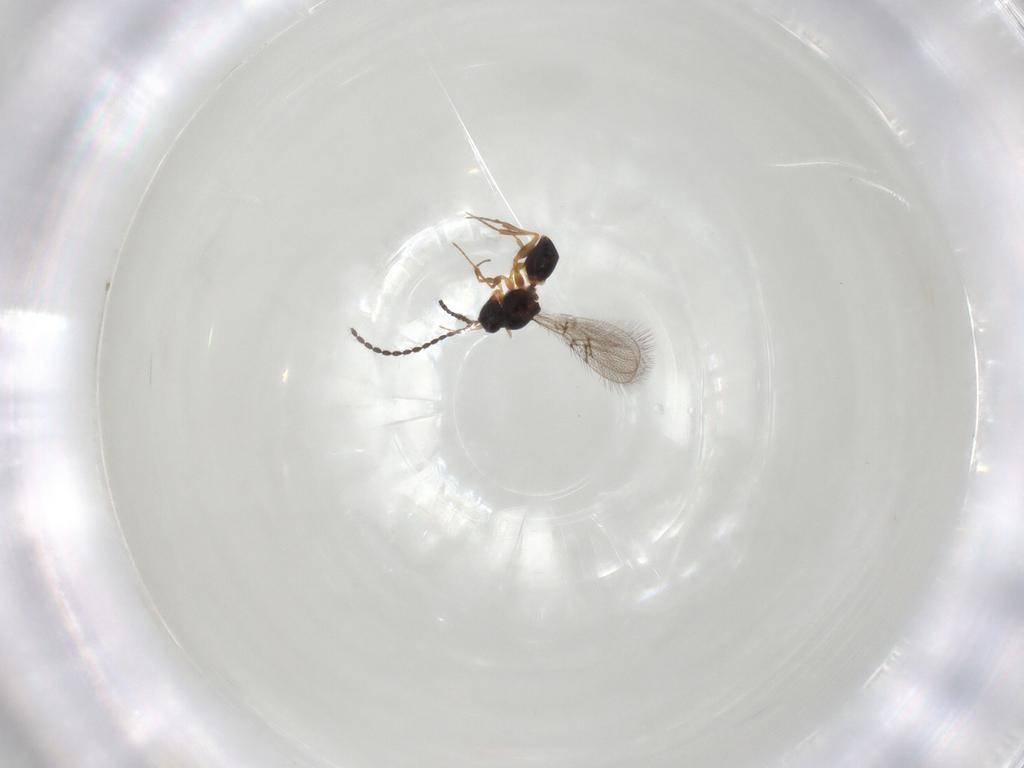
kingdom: Animalia
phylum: Arthropoda
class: Insecta
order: Hymenoptera
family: Figitidae
